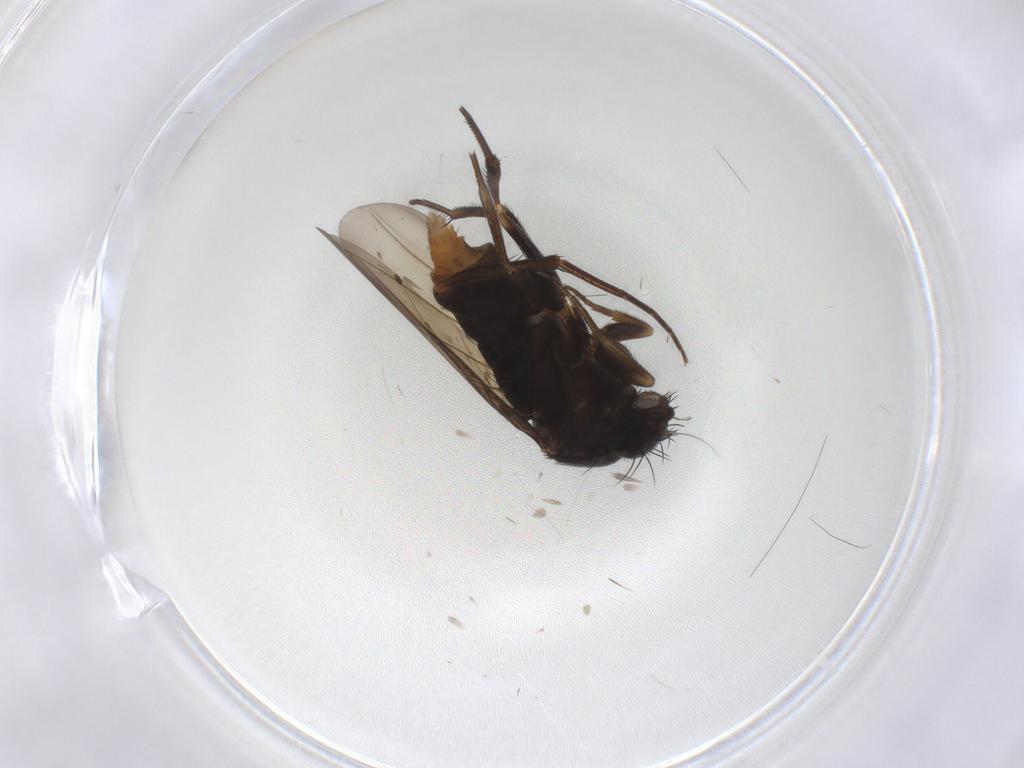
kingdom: Animalia
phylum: Arthropoda
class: Insecta
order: Diptera
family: Phoridae
